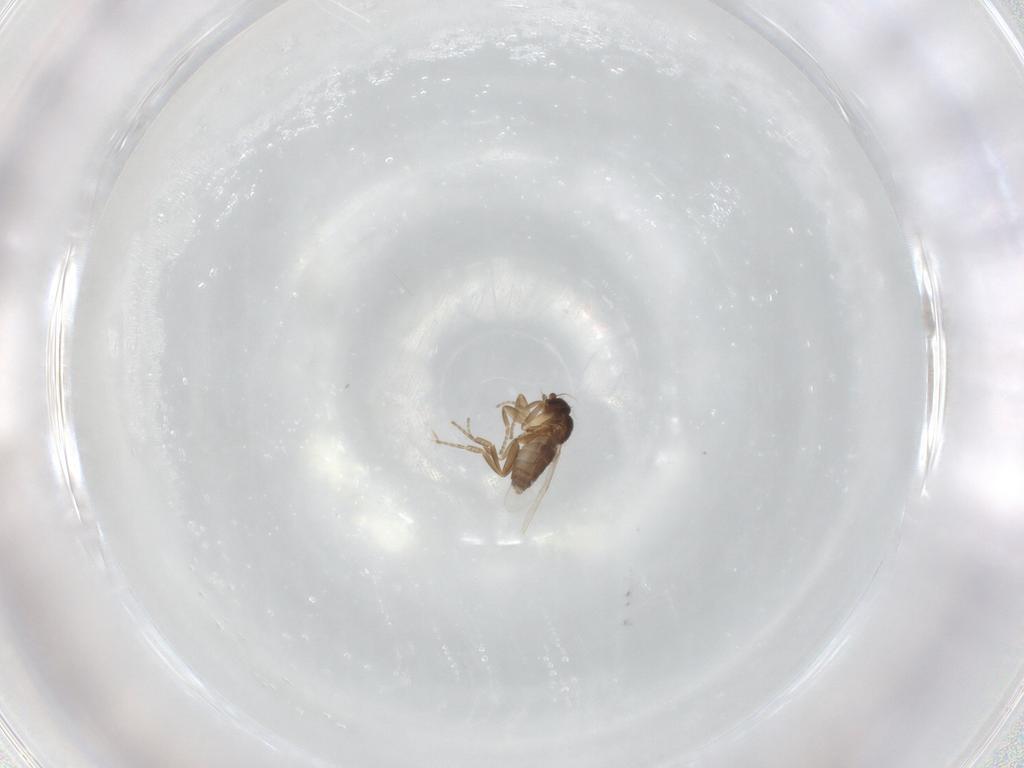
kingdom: Animalia
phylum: Arthropoda
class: Insecta
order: Diptera
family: Phoridae
